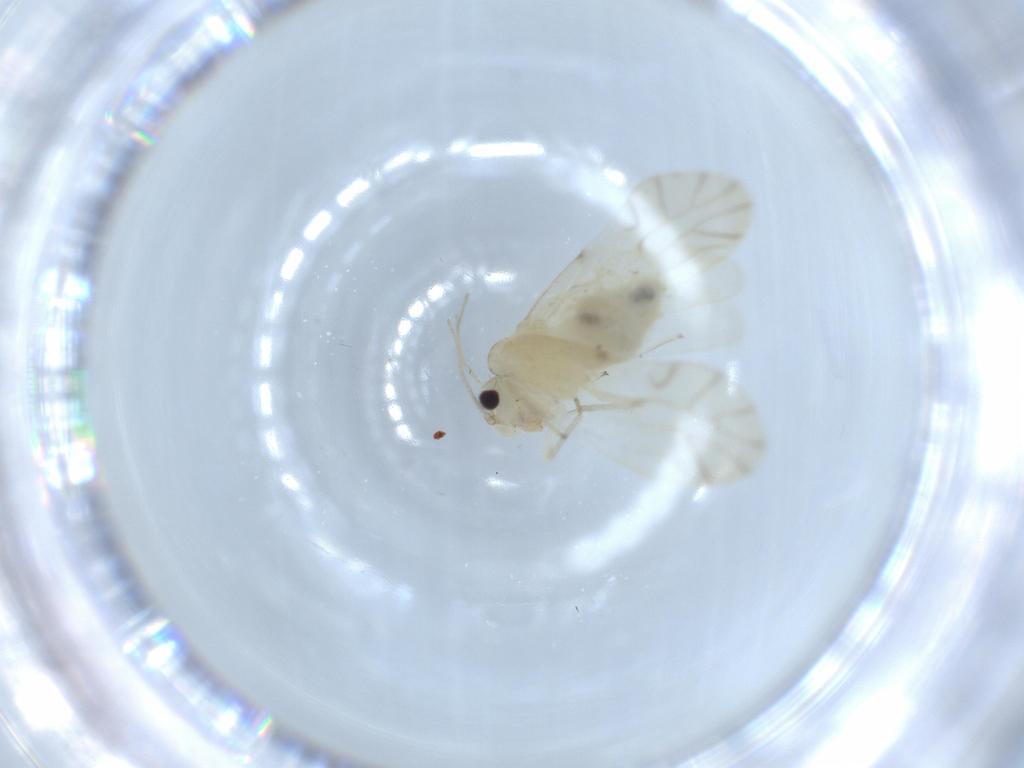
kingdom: Animalia
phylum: Arthropoda
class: Insecta
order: Psocodea
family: Caeciliusidae
